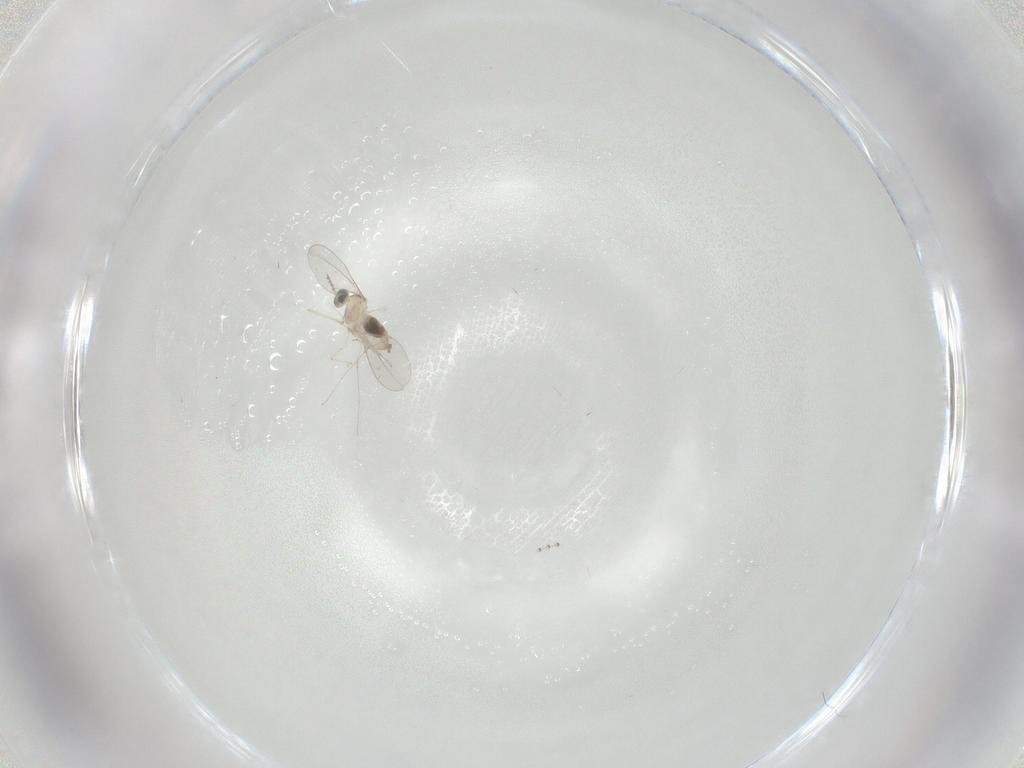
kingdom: Animalia
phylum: Arthropoda
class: Insecta
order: Diptera
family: Cecidomyiidae
